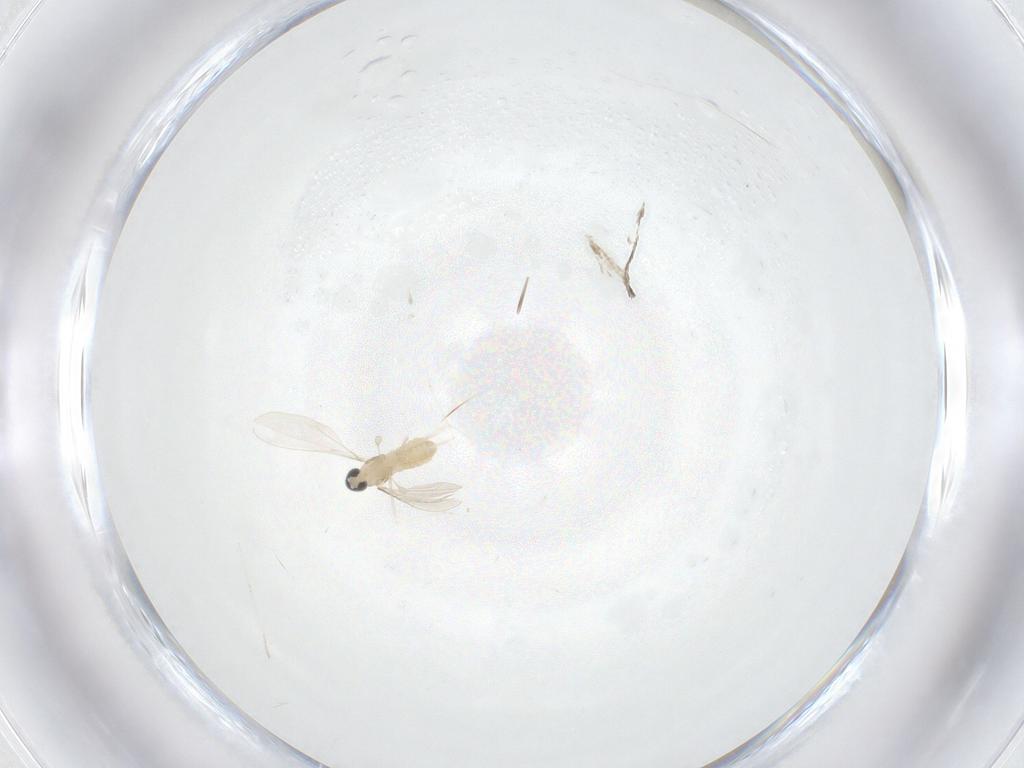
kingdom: Animalia
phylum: Arthropoda
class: Insecta
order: Diptera
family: Cecidomyiidae
